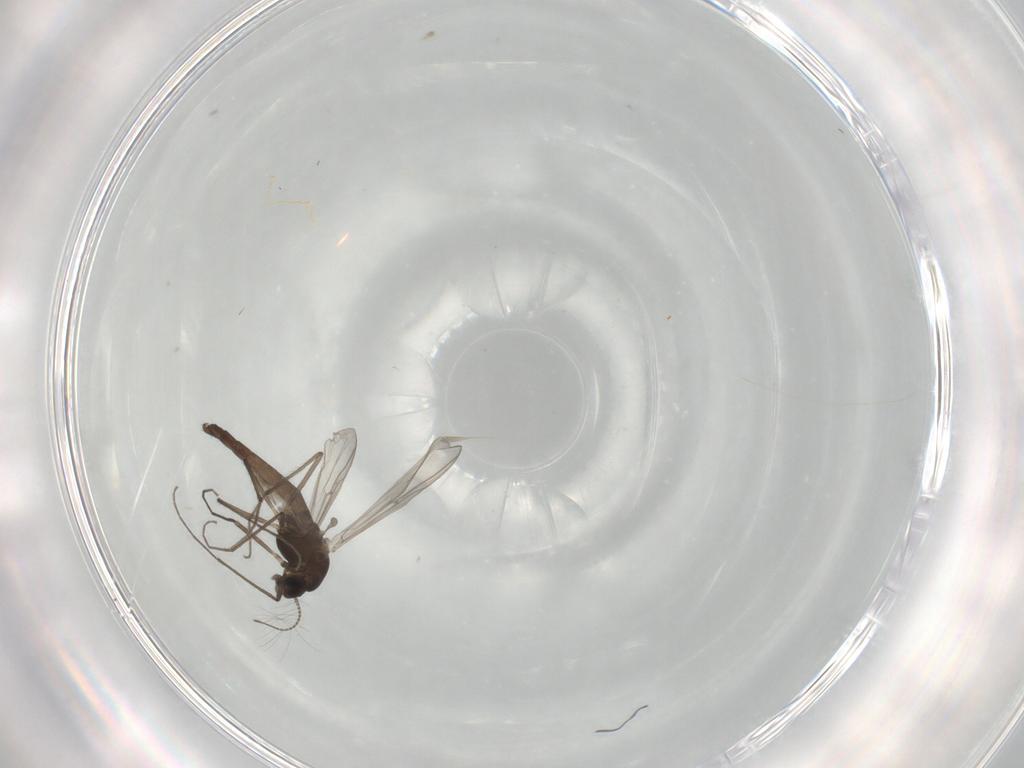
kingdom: Animalia
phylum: Arthropoda
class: Insecta
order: Diptera
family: Chironomidae
